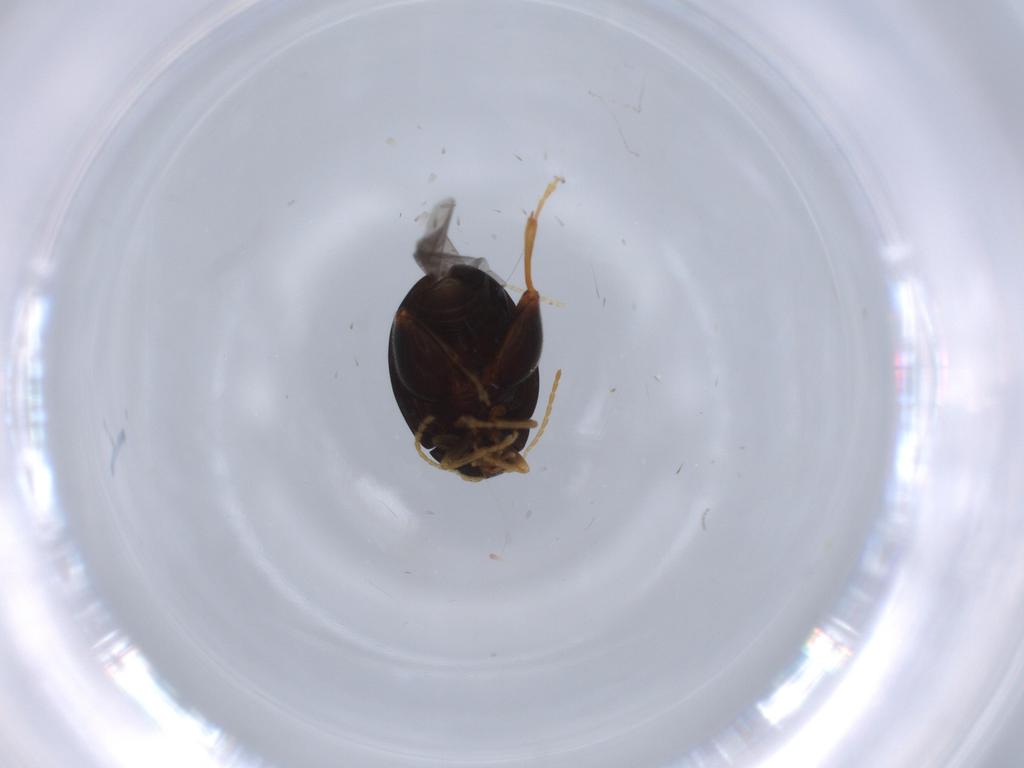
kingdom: Animalia
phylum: Arthropoda
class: Insecta
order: Coleoptera
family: Chrysomelidae
